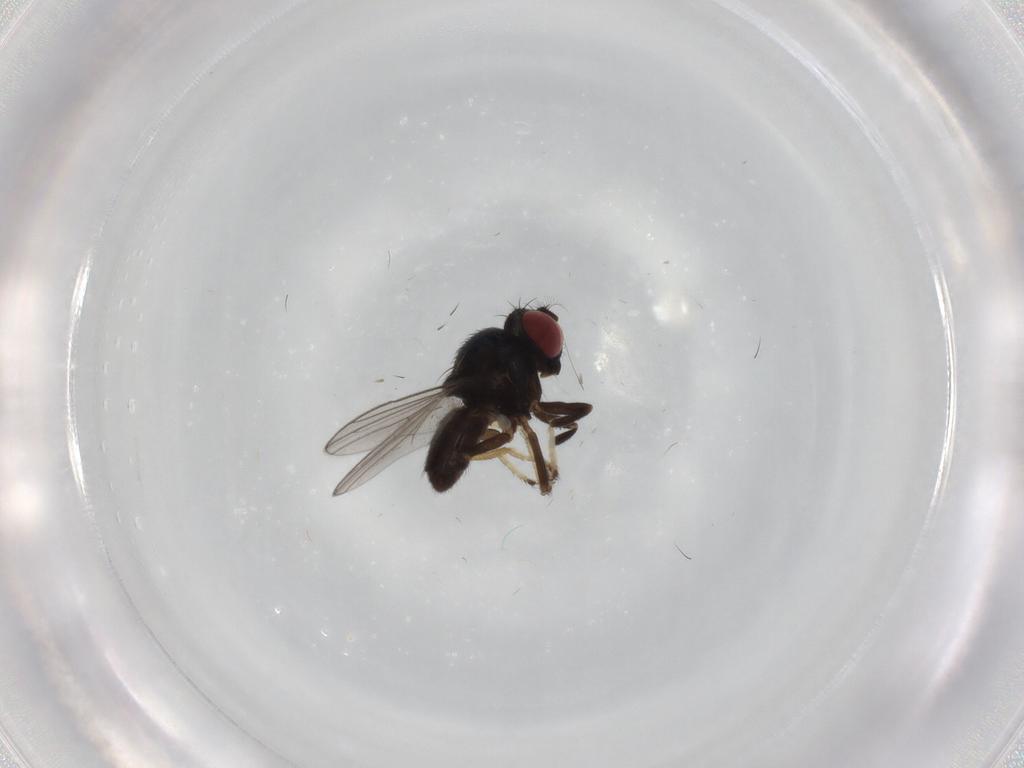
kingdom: Animalia
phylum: Arthropoda
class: Insecta
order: Diptera
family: Ephydridae
